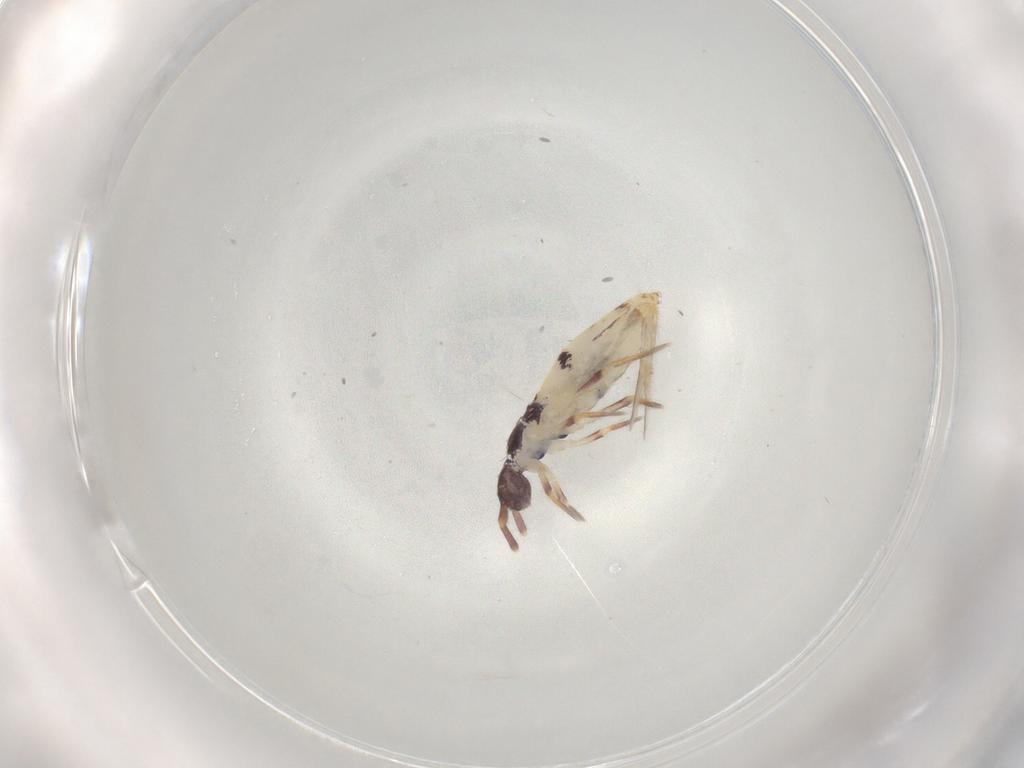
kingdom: Animalia
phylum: Arthropoda
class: Collembola
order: Entomobryomorpha
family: Entomobryidae
